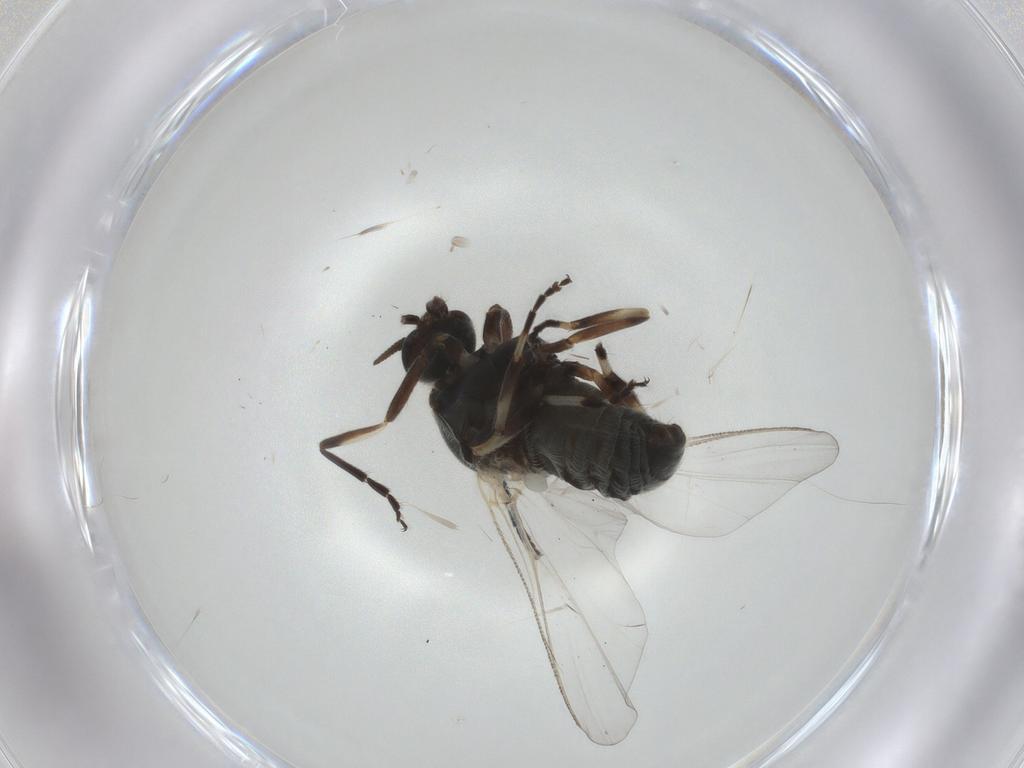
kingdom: Animalia
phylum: Arthropoda
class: Insecta
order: Diptera
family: Simuliidae
